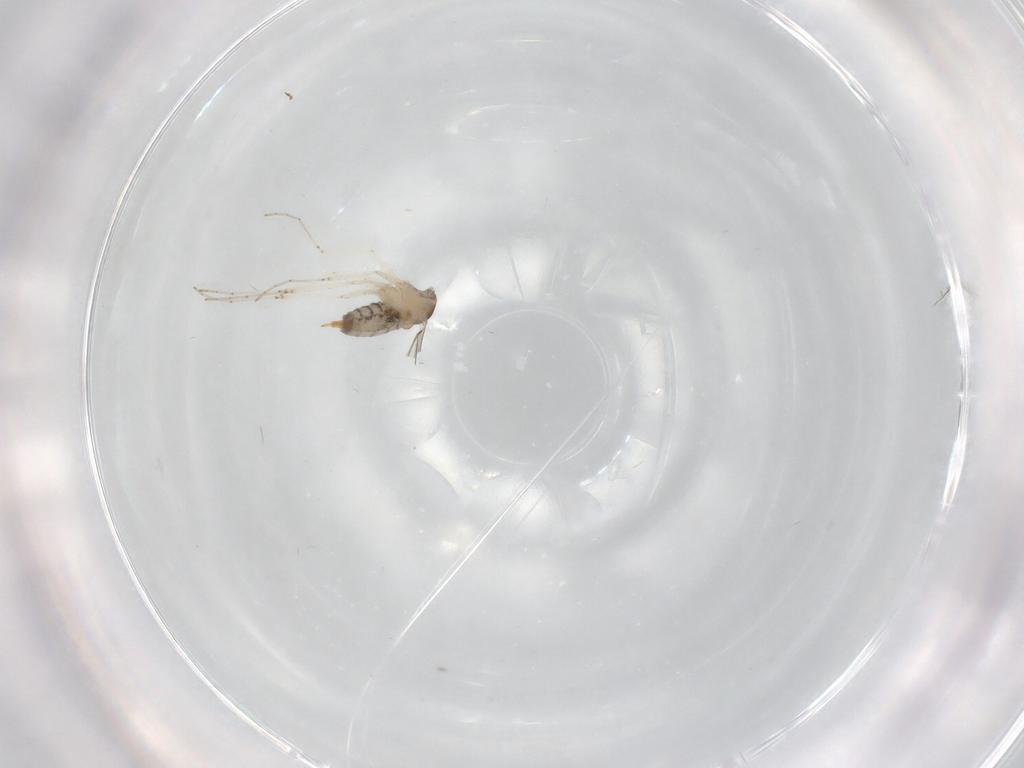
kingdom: Animalia
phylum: Arthropoda
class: Insecta
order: Diptera
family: Cecidomyiidae
